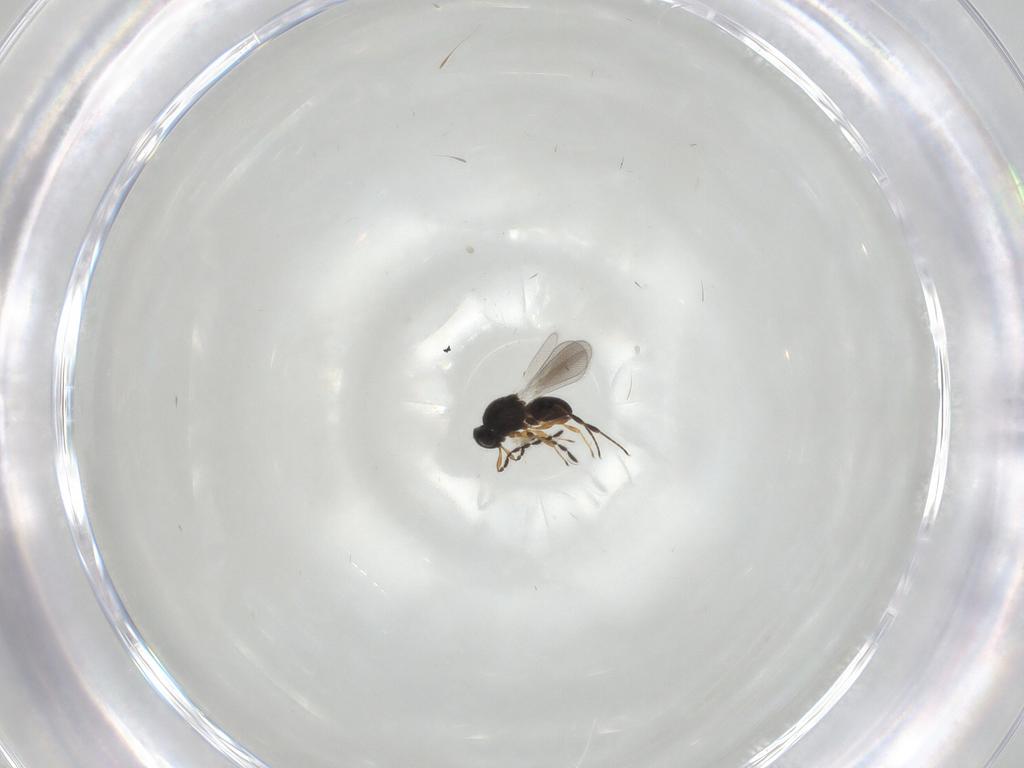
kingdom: Animalia
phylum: Arthropoda
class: Insecta
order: Hymenoptera
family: Platygastridae
